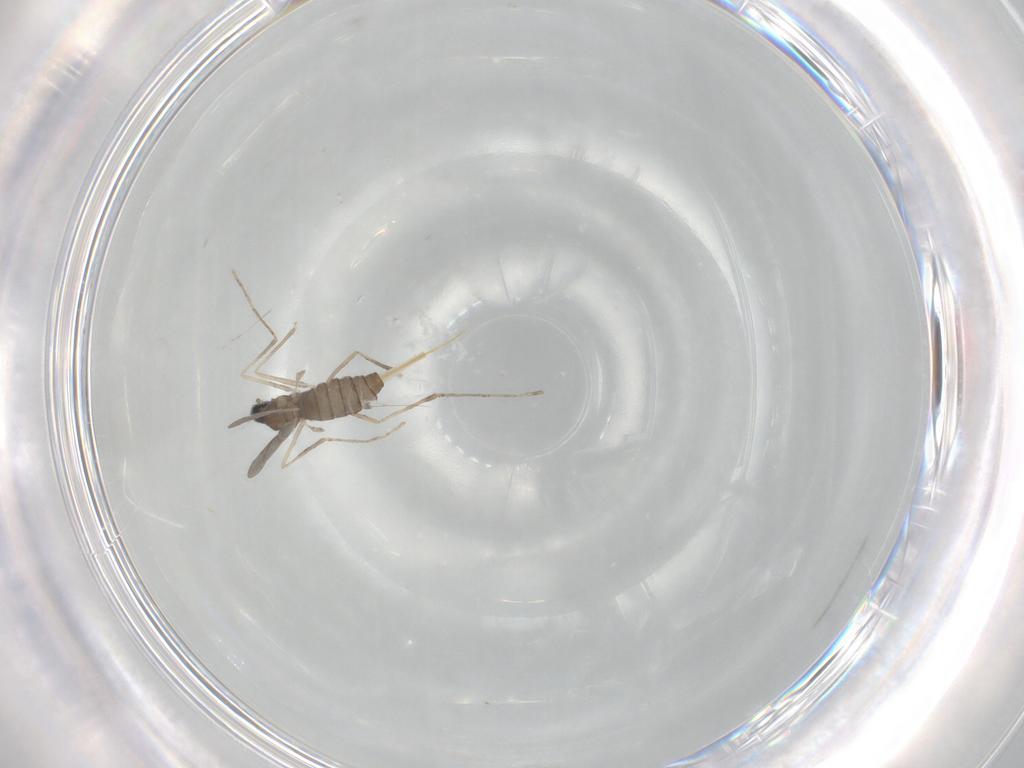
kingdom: Animalia
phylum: Arthropoda
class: Insecta
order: Diptera
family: Cecidomyiidae
